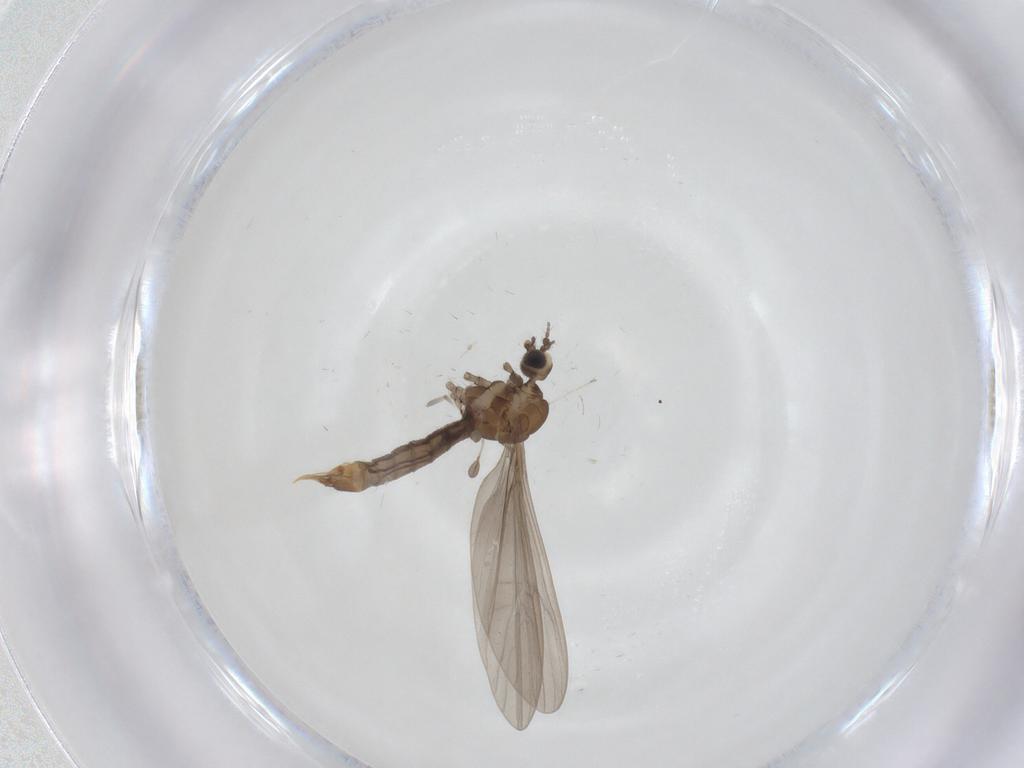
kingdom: Animalia
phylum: Arthropoda
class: Insecta
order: Diptera
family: Limoniidae
